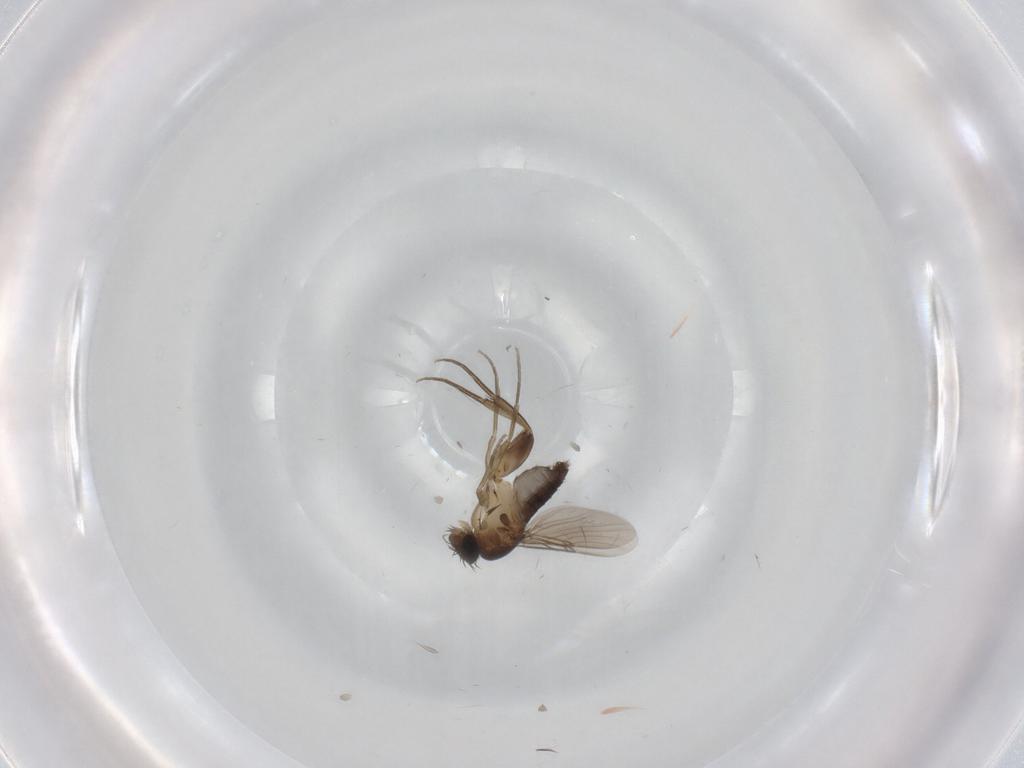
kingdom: Animalia
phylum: Arthropoda
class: Insecta
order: Diptera
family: Phoridae
